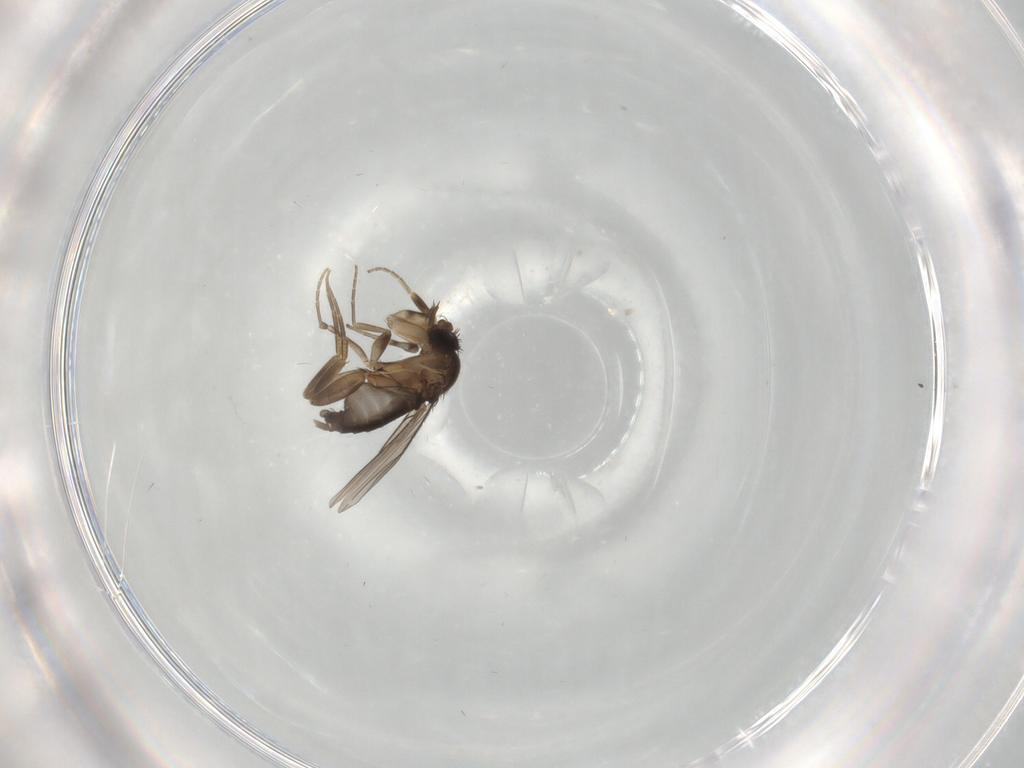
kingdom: Animalia
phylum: Arthropoda
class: Insecta
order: Diptera
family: Phoridae
